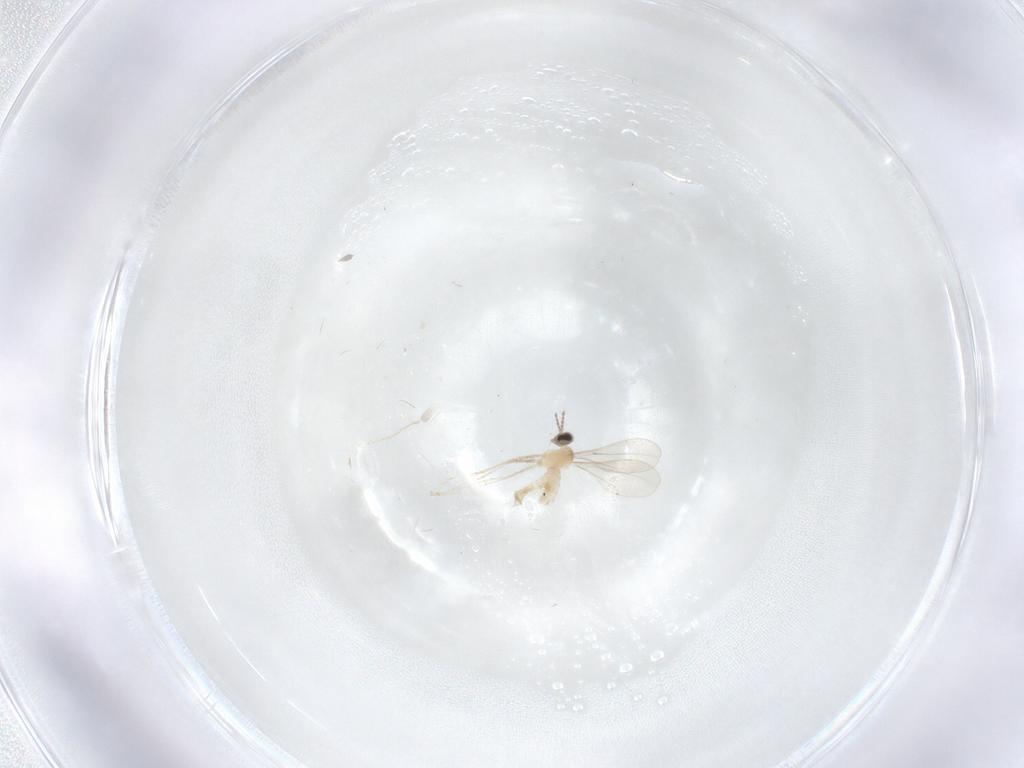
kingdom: Animalia
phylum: Arthropoda
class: Insecta
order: Diptera
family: Cecidomyiidae
